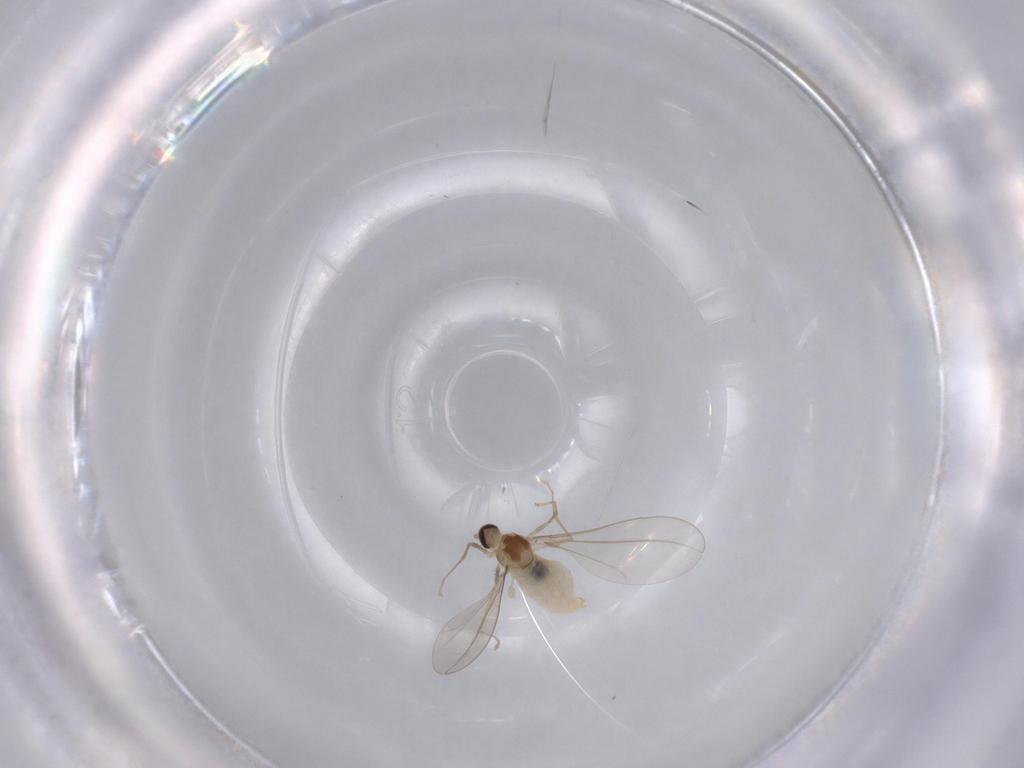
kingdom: Animalia
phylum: Arthropoda
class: Insecta
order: Diptera
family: Cecidomyiidae
